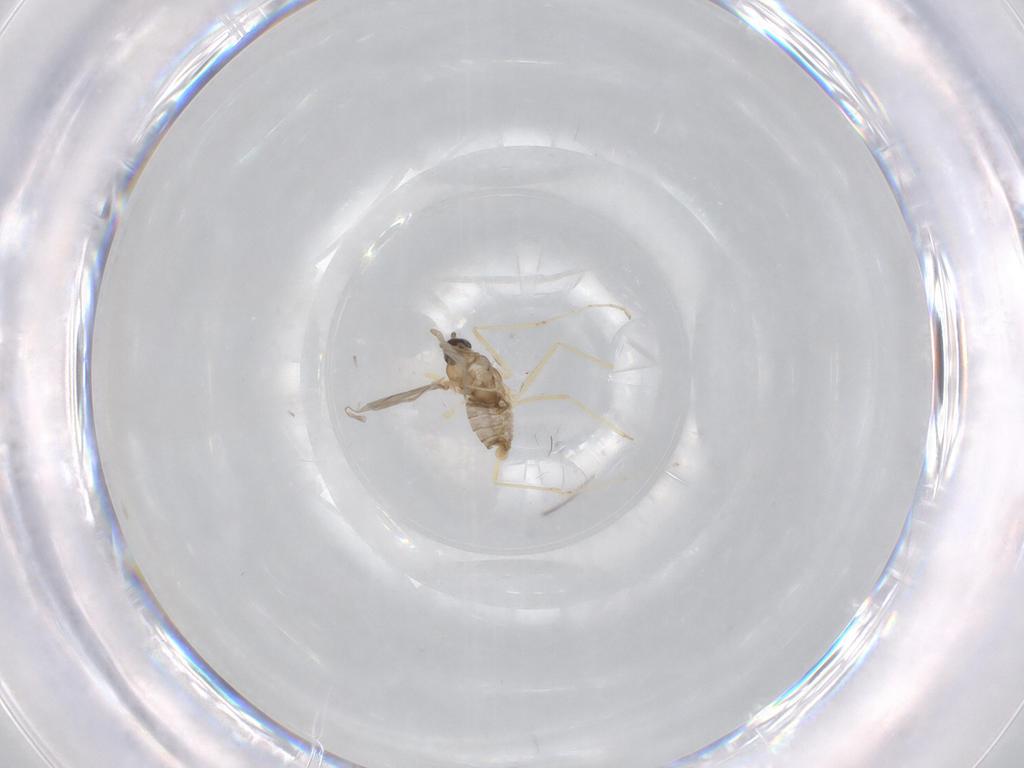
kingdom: Animalia
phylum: Arthropoda
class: Insecta
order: Diptera
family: Cecidomyiidae
